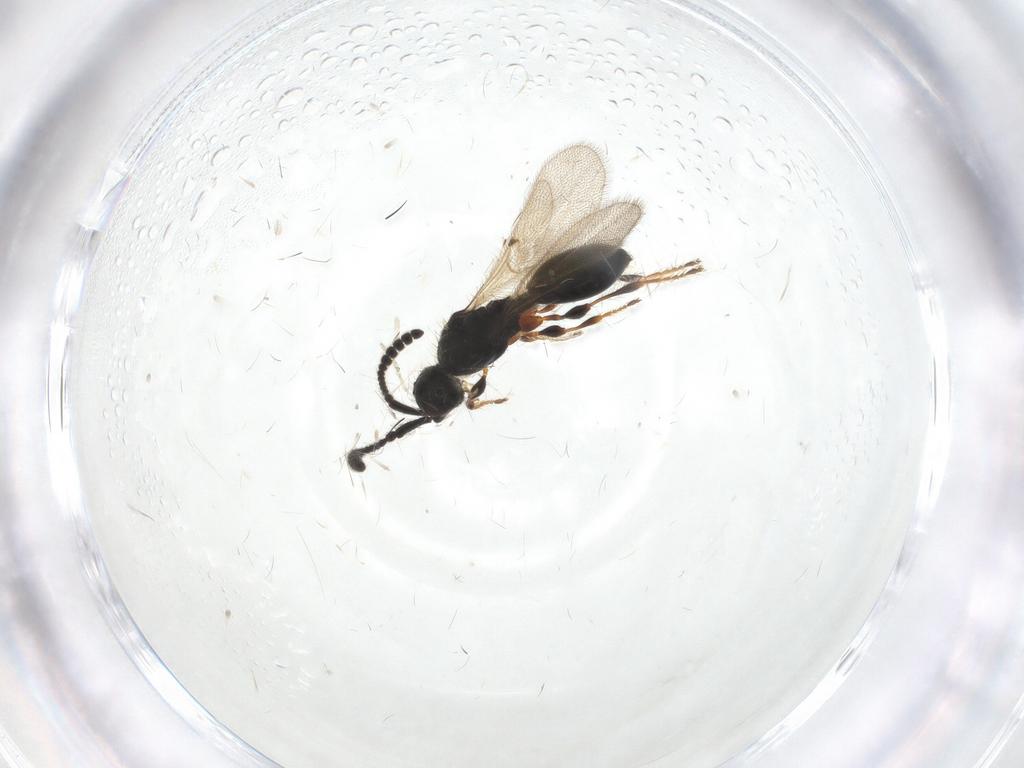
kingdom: Animalia
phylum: Arthropoda
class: Insecta
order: Hymenoptera
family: Diapriidae
